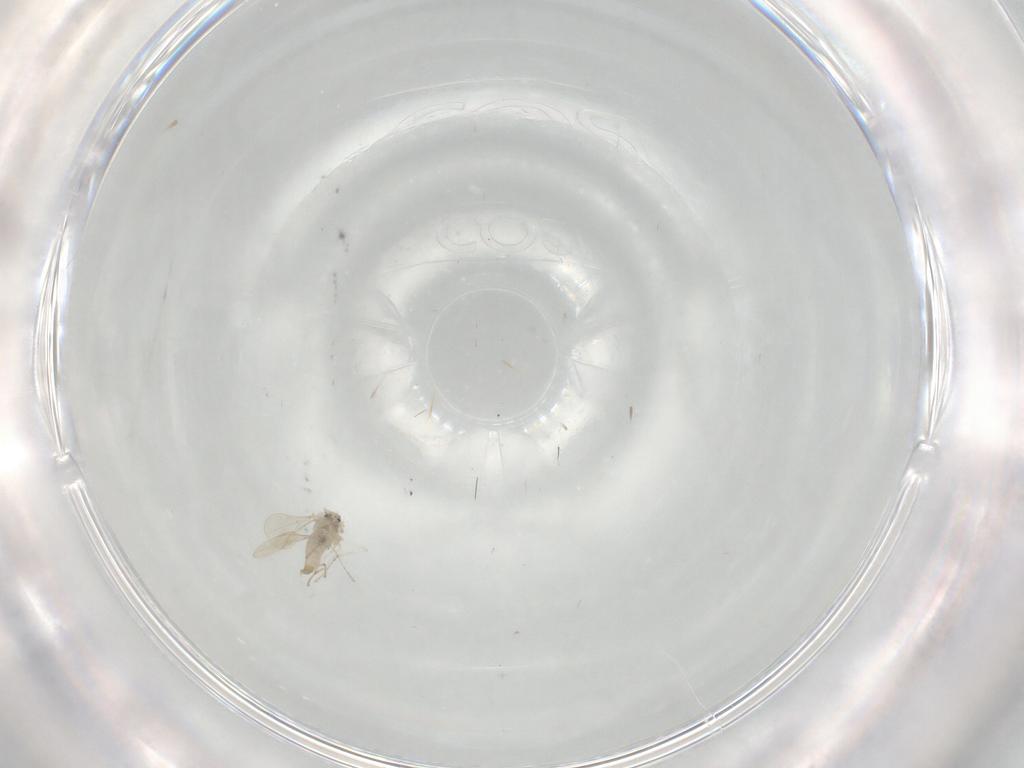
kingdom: Animalia
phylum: Arthropoda
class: Insecta
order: Diptera
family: Cecidomyiidae
